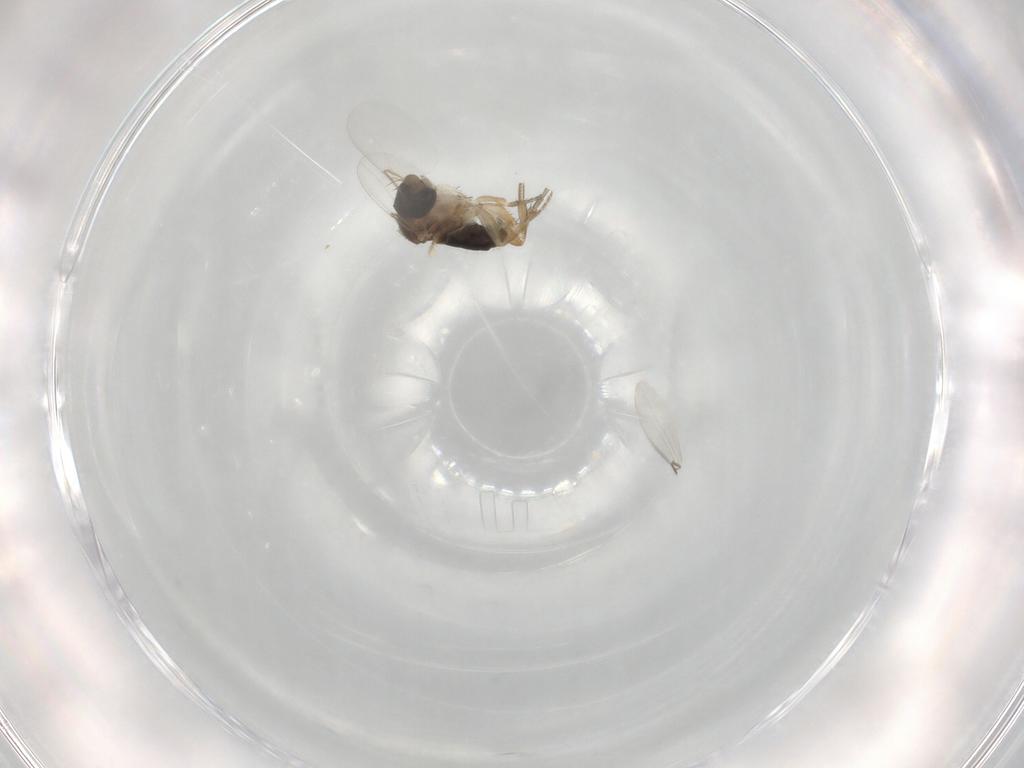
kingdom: Animalia
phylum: Arthropoda
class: Insecta
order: Diptera
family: Phoridae
